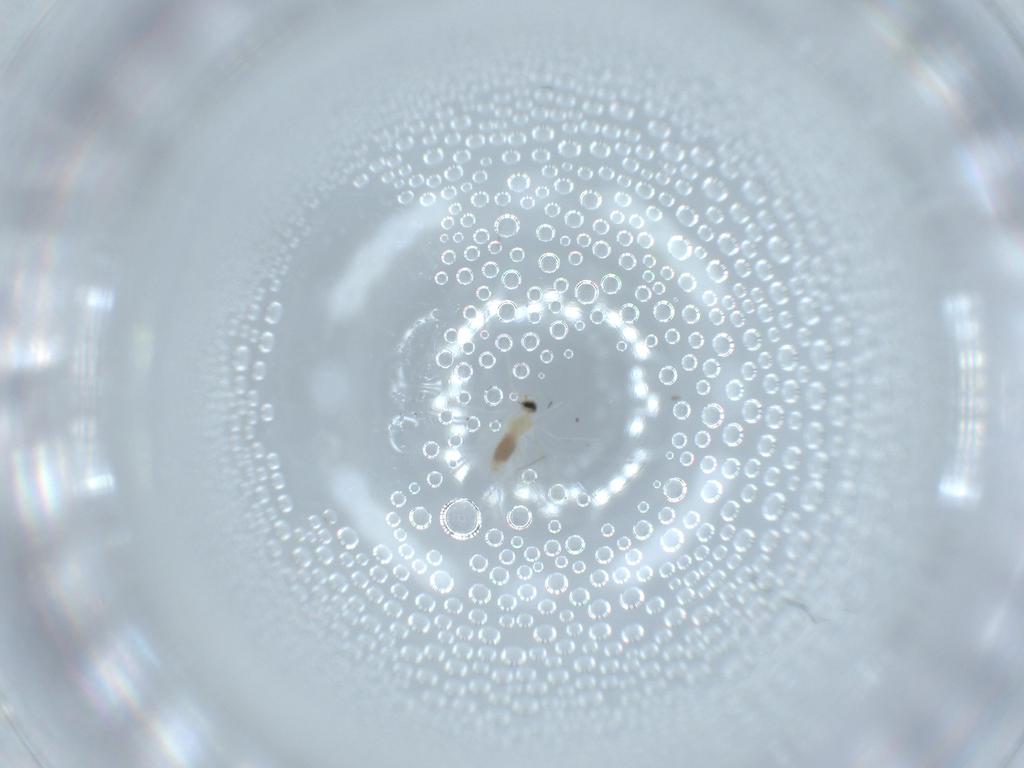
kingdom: Animalia
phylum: Arthropoda
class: Insecta
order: Diptera
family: Cecidomyiidae
